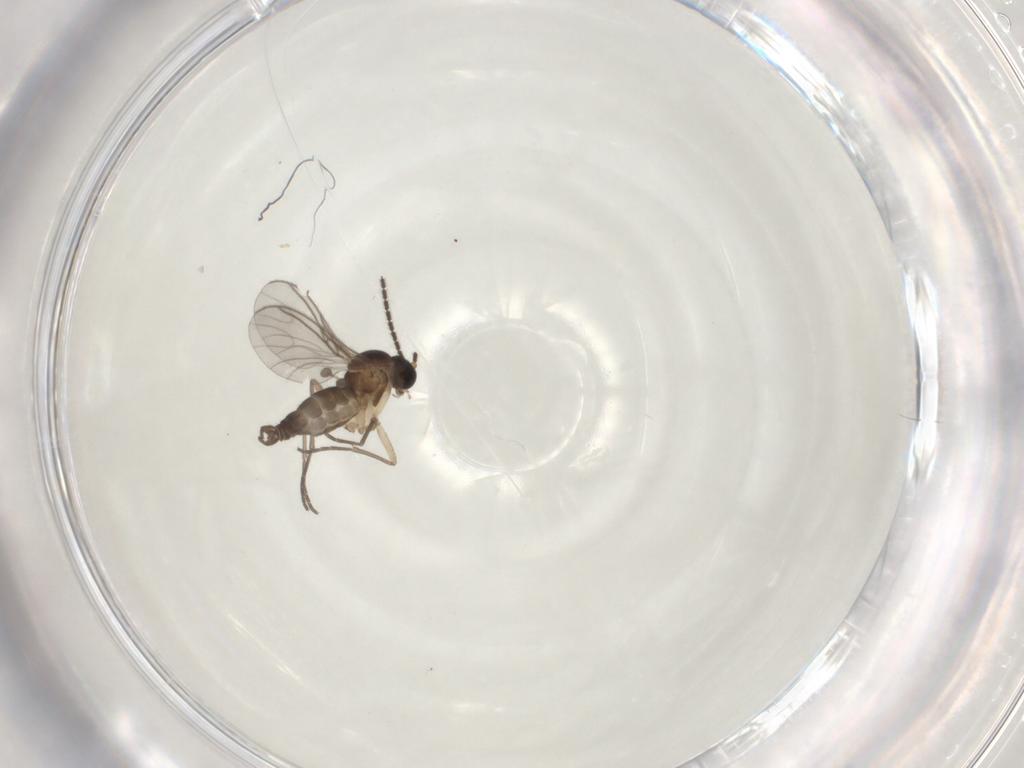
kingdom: Animalia
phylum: Arthropoda
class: Insecta
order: Diptera
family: Sciaridae
